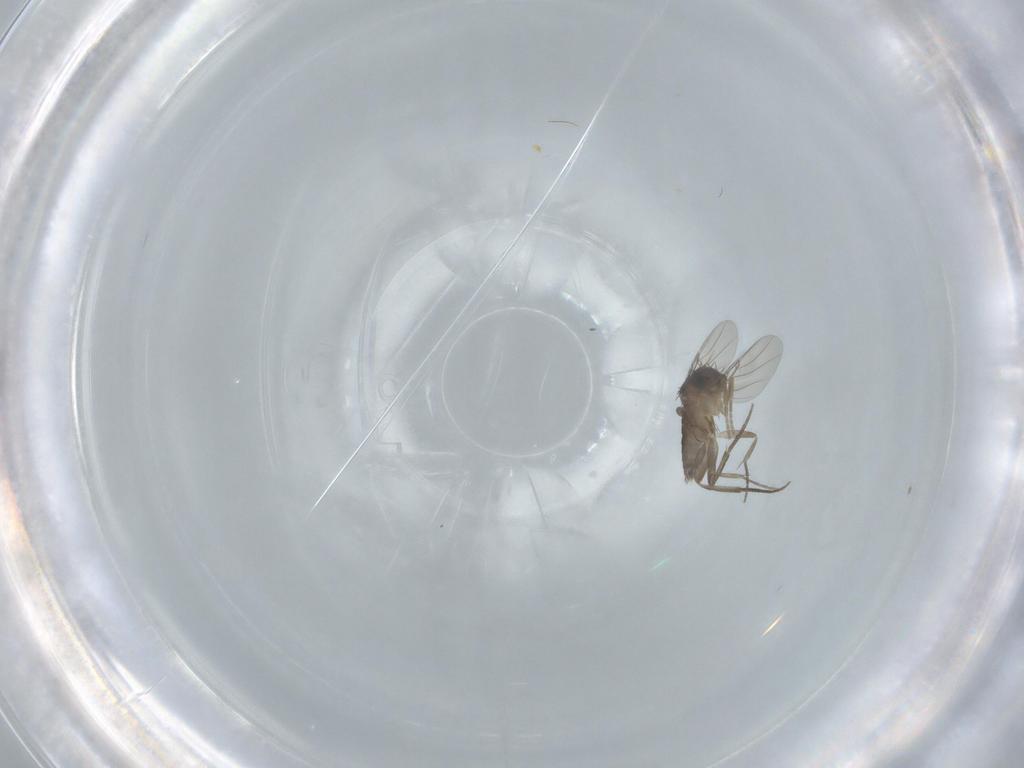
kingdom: Animalia
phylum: Arthropoda
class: Insecta
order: Diptera
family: Phoridae
